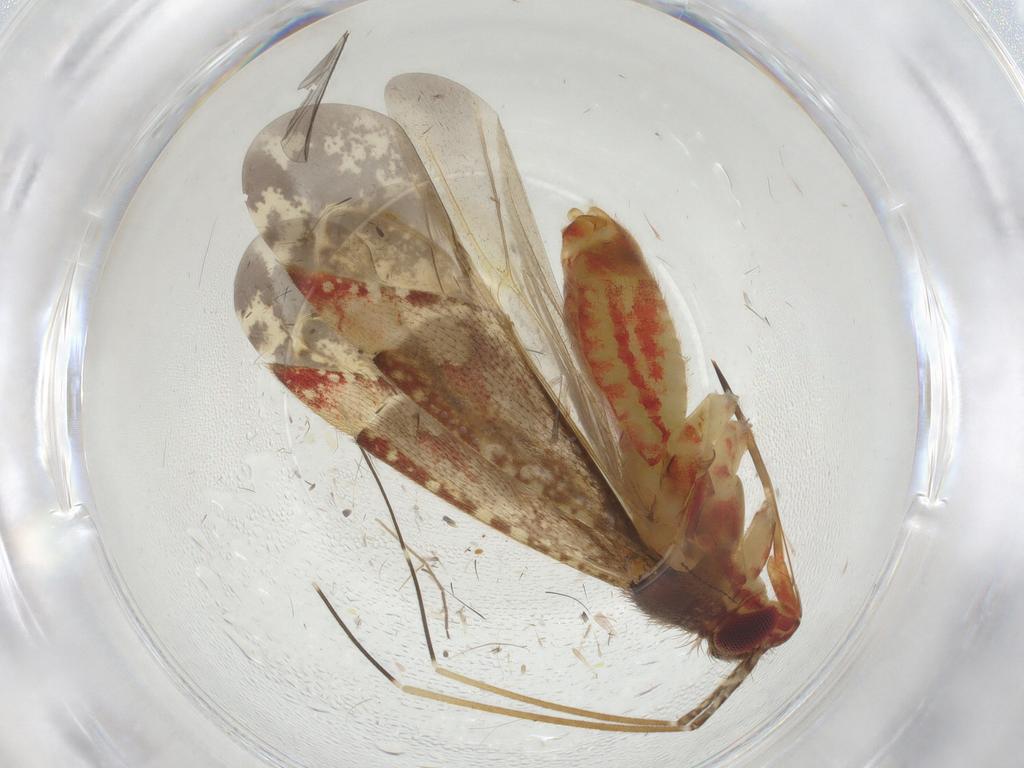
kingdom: Animalia
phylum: Arthropoda
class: Insecta
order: Hemiptera
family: Miridae
